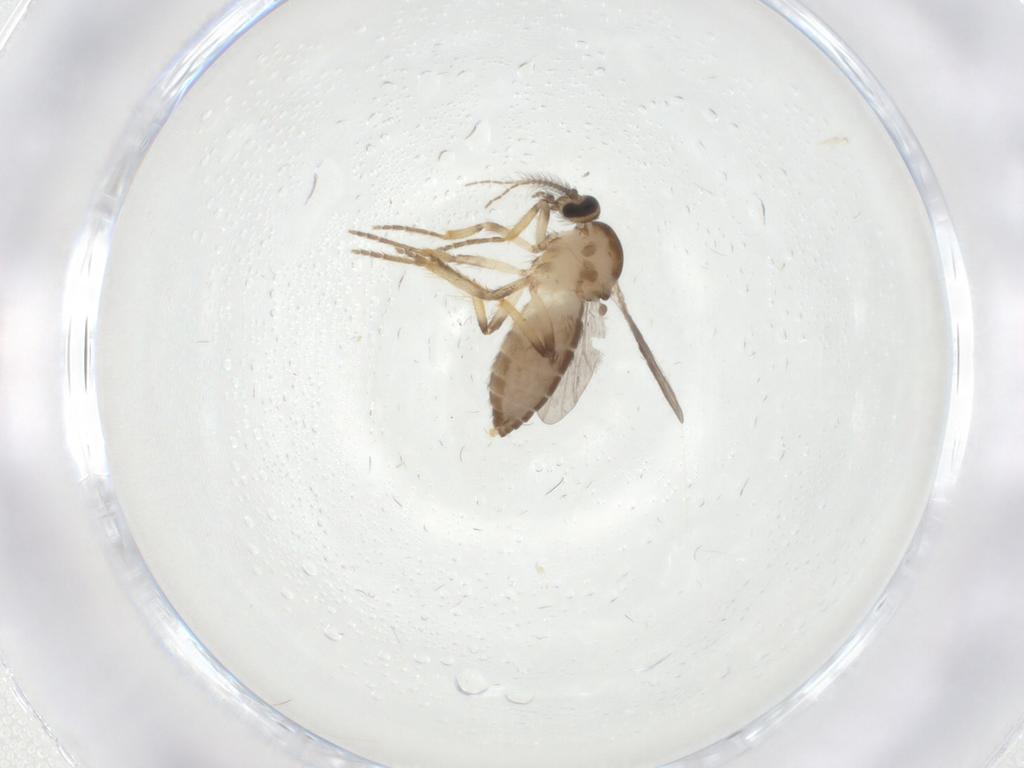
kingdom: Animalia
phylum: Arthropoda
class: Insecta
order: Diptera
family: Ceratopogonidae
